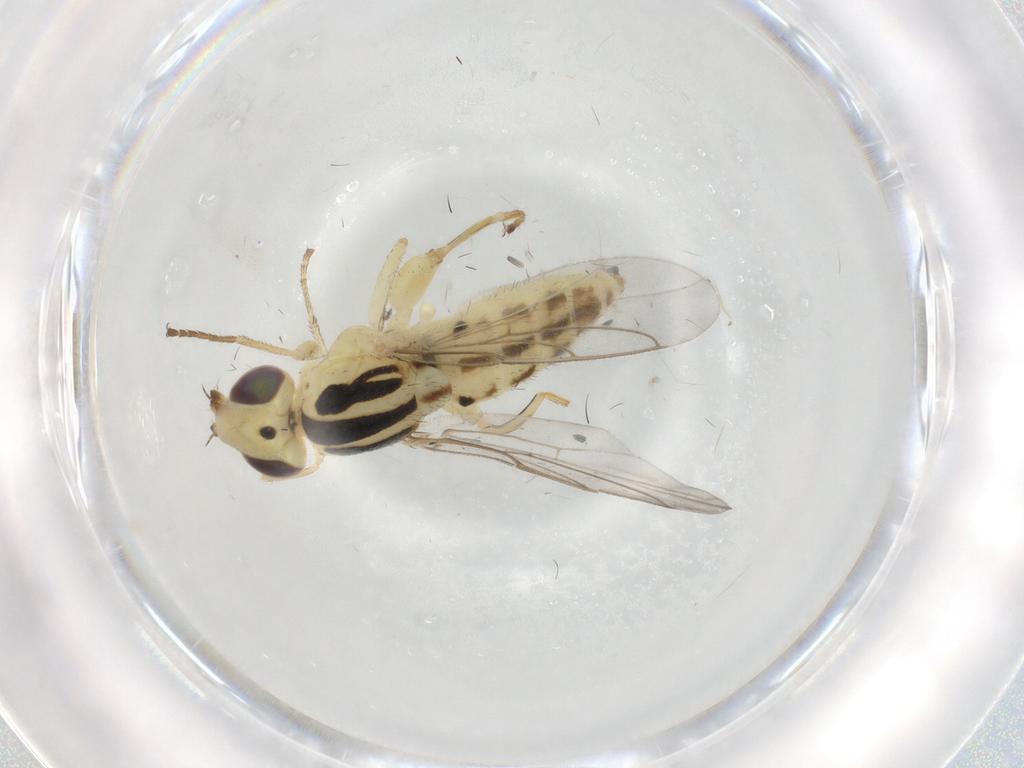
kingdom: Animalia
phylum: Arthropoda
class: Insecta
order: Diptera
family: Chloropidae
